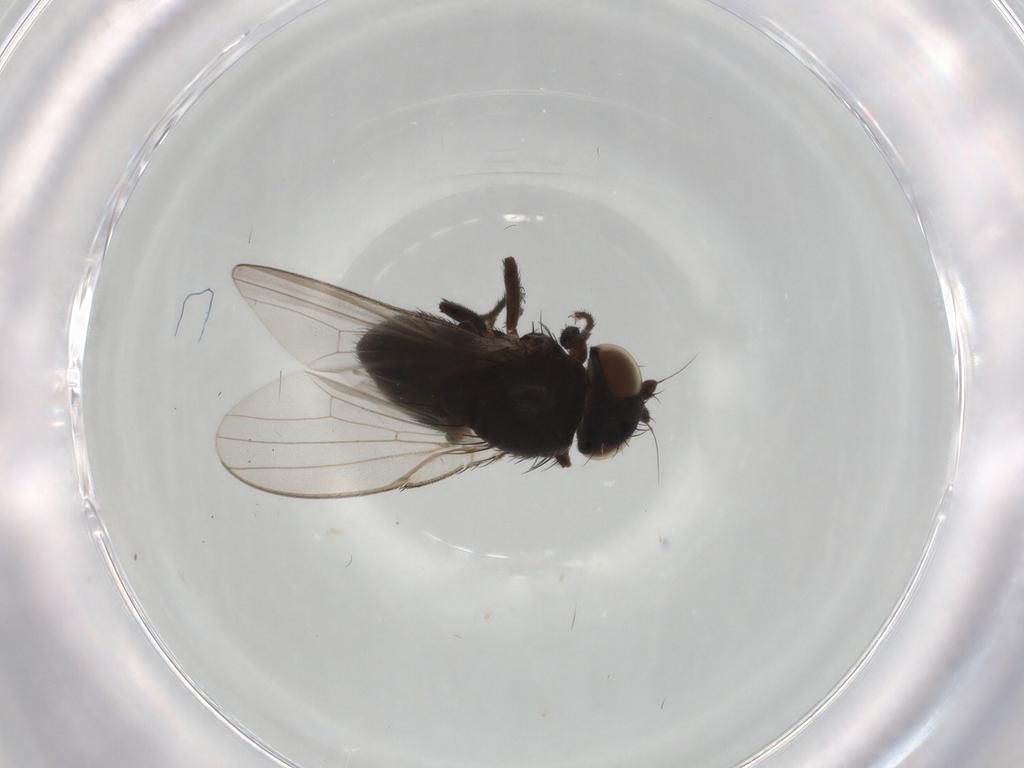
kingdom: Animalia
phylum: Arthropoda
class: Insecta
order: Diptera
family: Milichiidae
